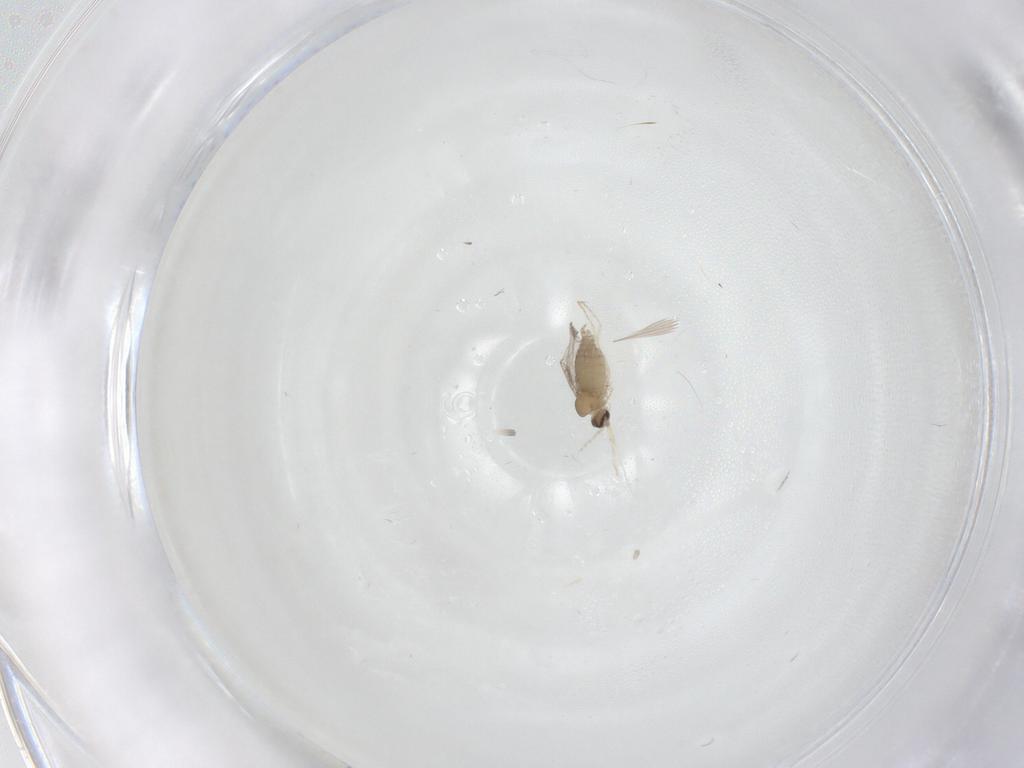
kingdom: Animalia
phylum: Arthropoda
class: Insecta
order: Diptera
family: Cecidomyiidae
